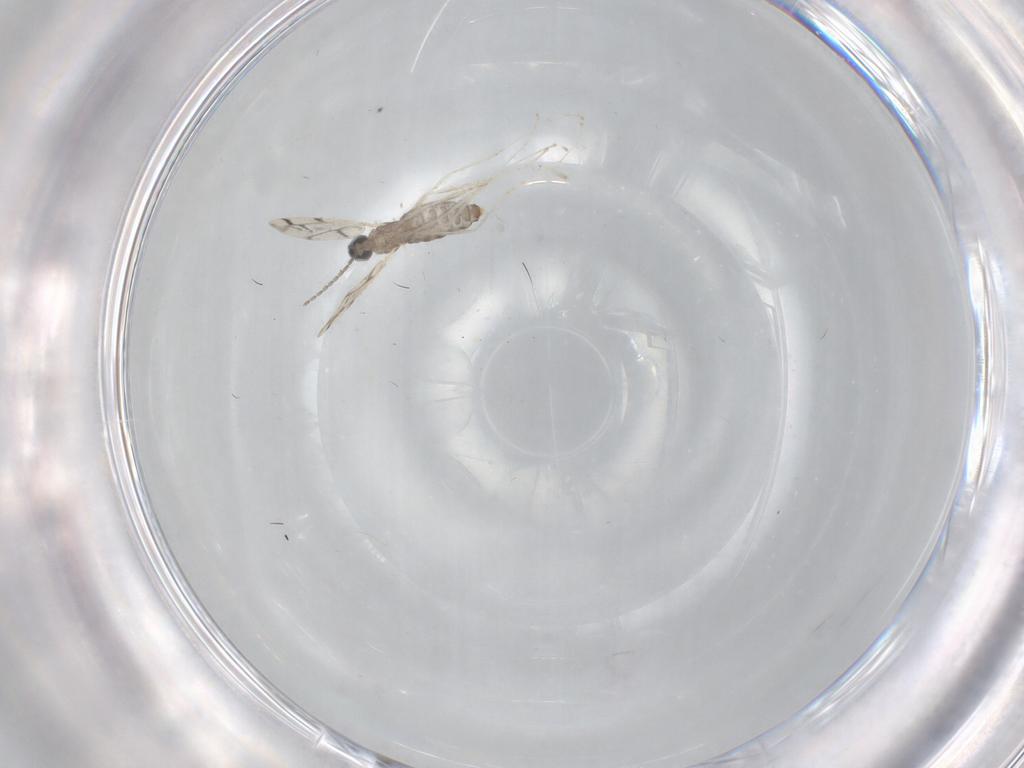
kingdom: Animalia
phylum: Arthropoda
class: Insecta
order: Diptera
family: Cecidomyiidae
